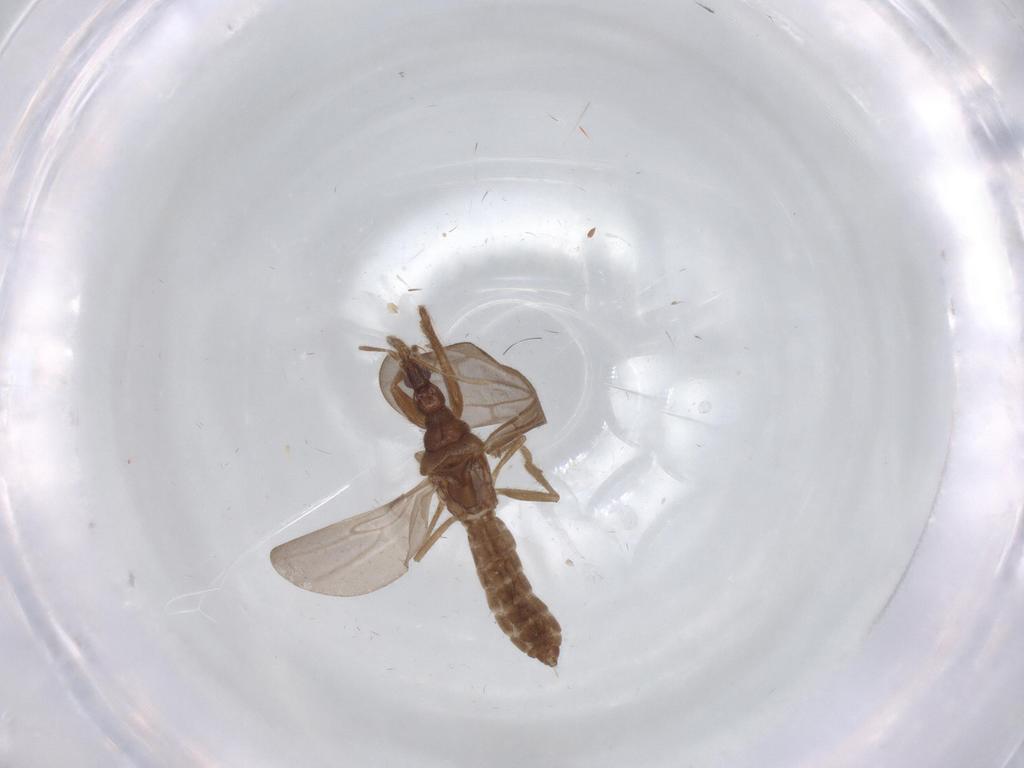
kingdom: Animalia
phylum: Arthropoda
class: Insecta
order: Hemiptera
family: Enicocephalidae
